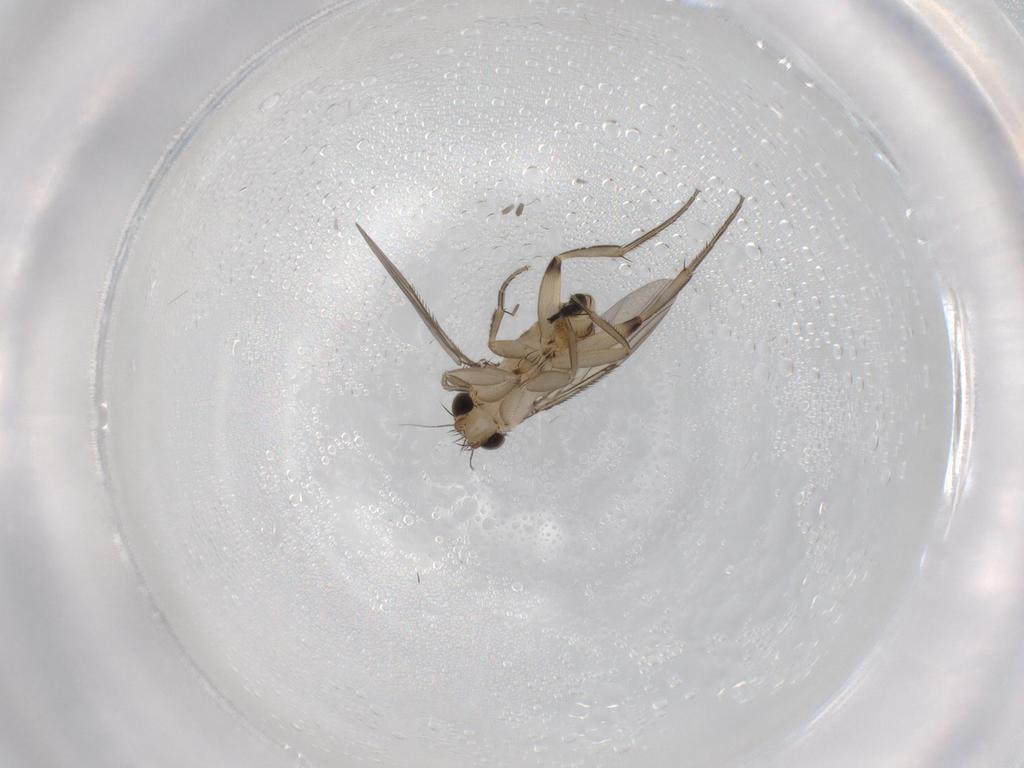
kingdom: Animalia
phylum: Arthropoda
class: Insecta
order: Diptera
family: Phoridae
